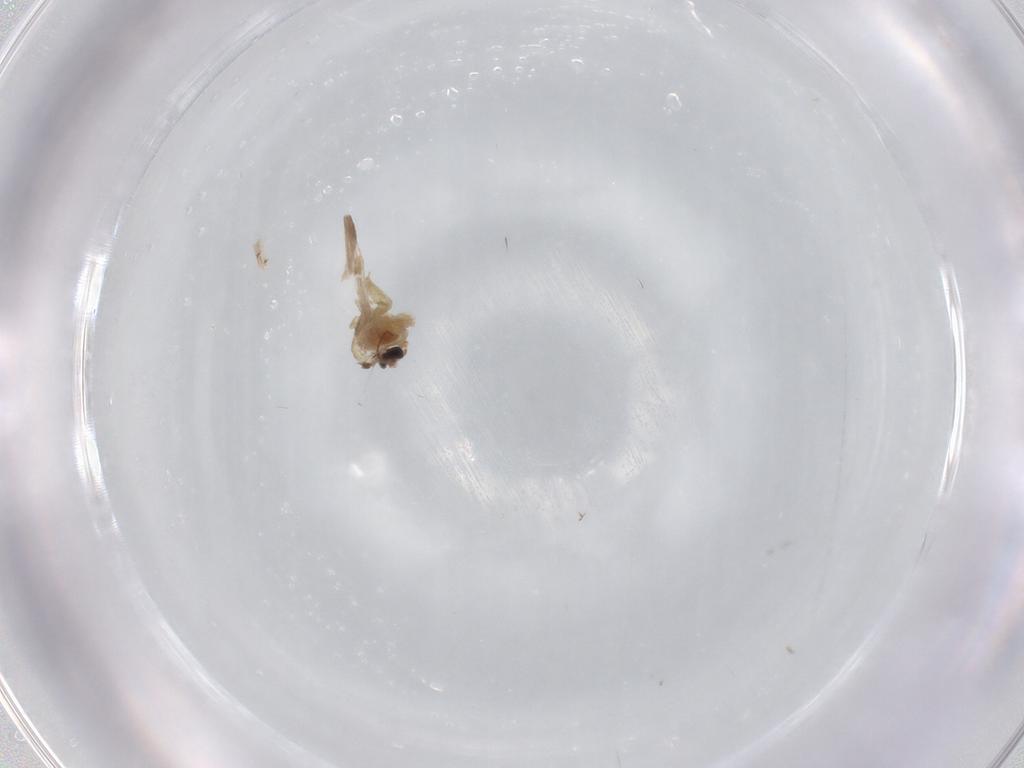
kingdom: Animalia
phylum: Arthropoda
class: Insecta
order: Diptera
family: Chironomidae
